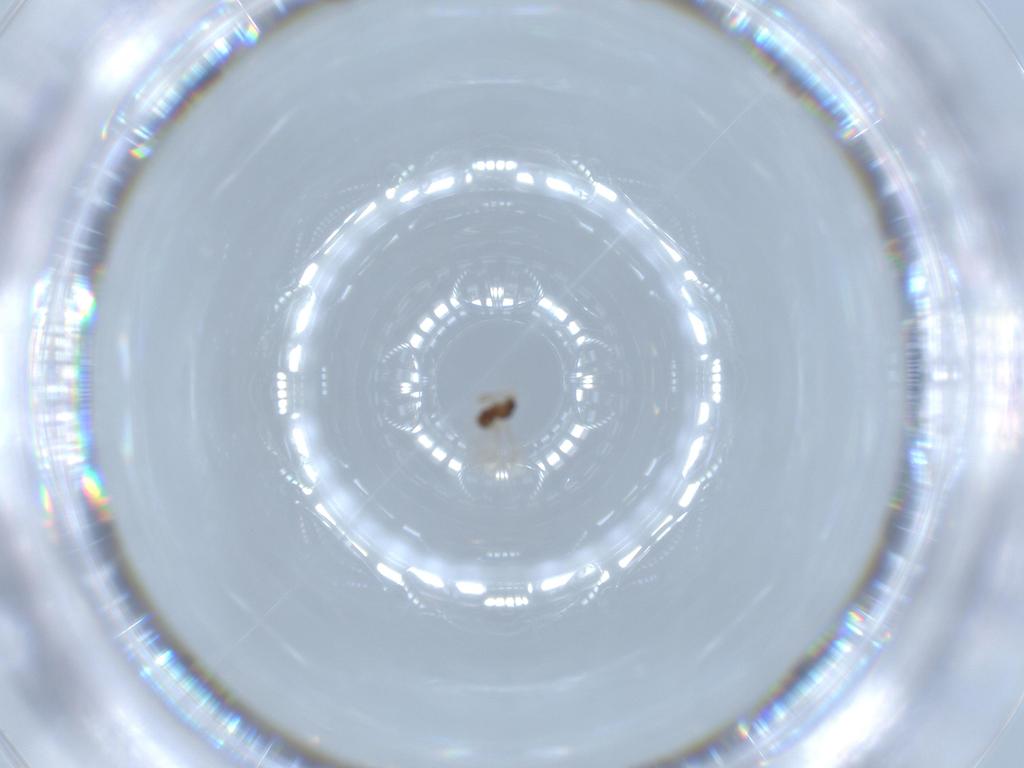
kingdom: Animalia
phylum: Arthropoda
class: Insecta
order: Hymenoptera
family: Mymaridae
